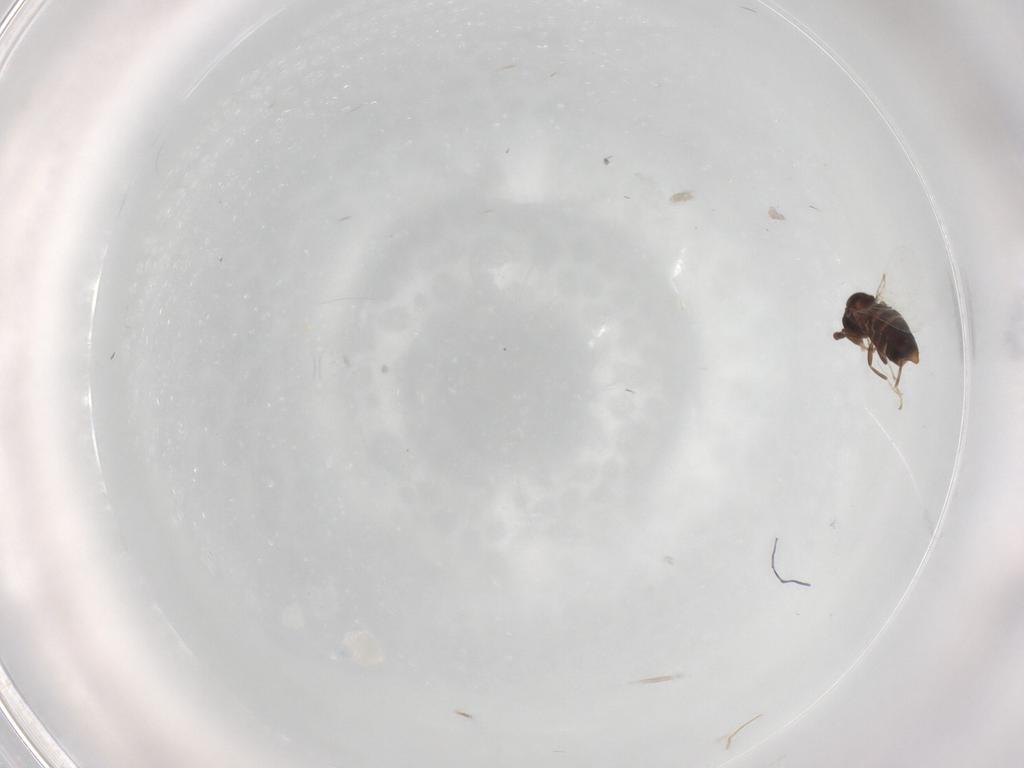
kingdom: Animalia
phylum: Arthropoda
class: Insecta
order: Diptera
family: Scatopsidae
